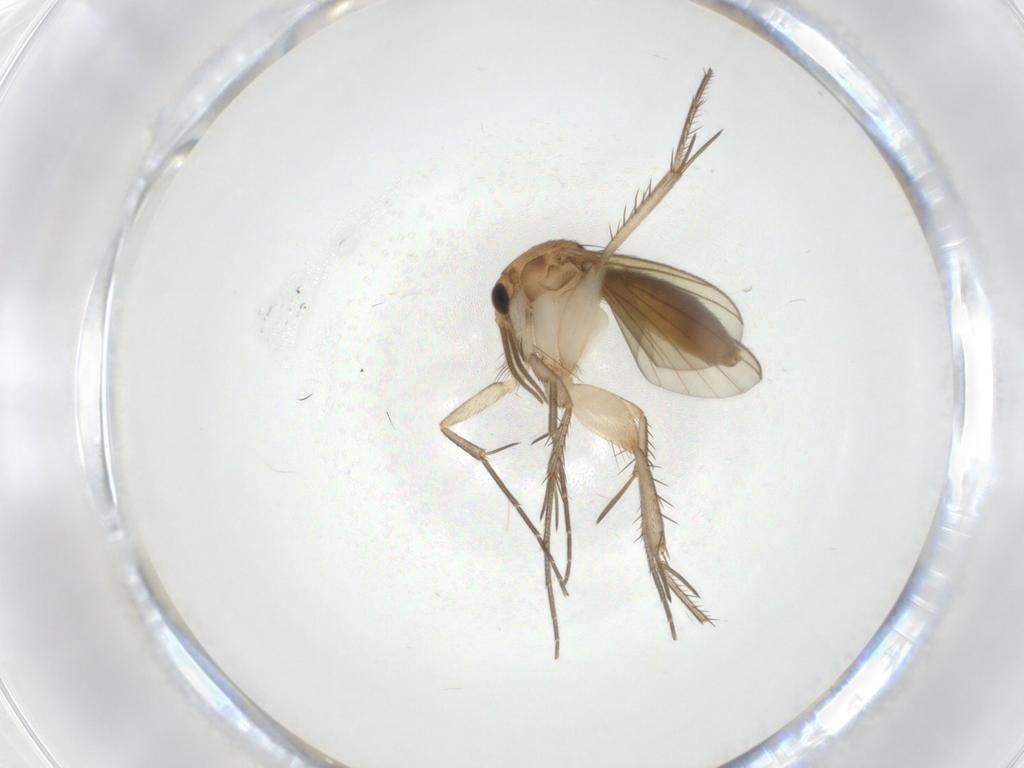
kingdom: Animalia
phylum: Arthropoda
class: Insecta
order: Diptera
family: Mycetophilidae
